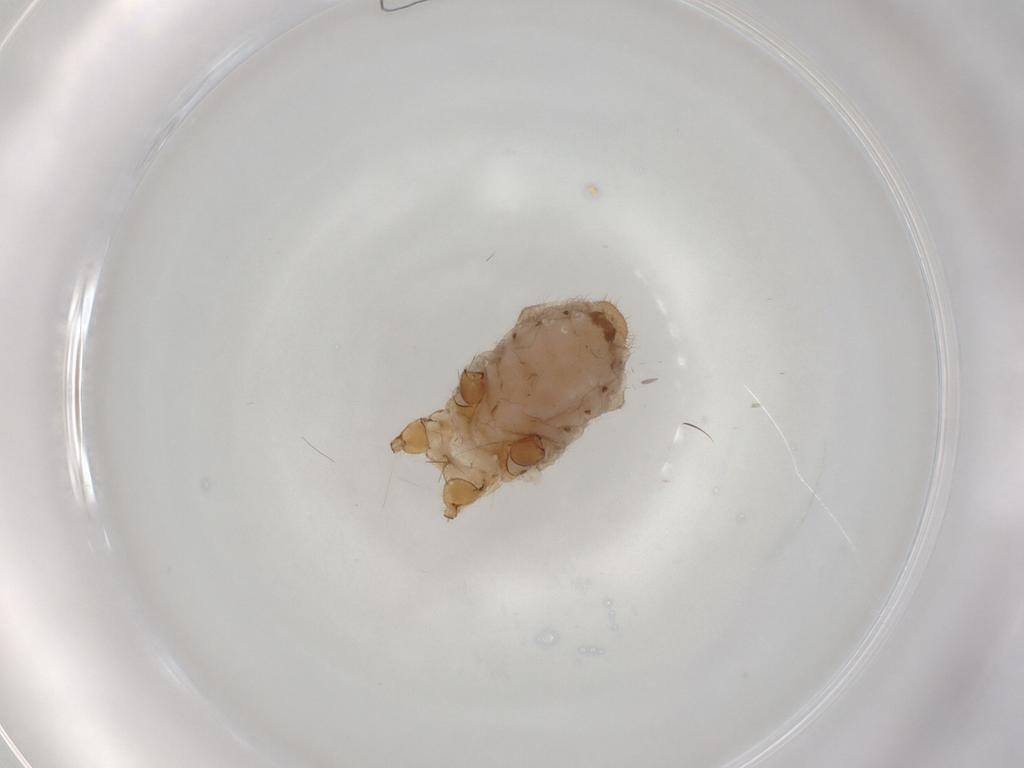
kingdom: Animalia
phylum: Arthropoda
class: Insecta
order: Hemiptera
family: Aphididae
